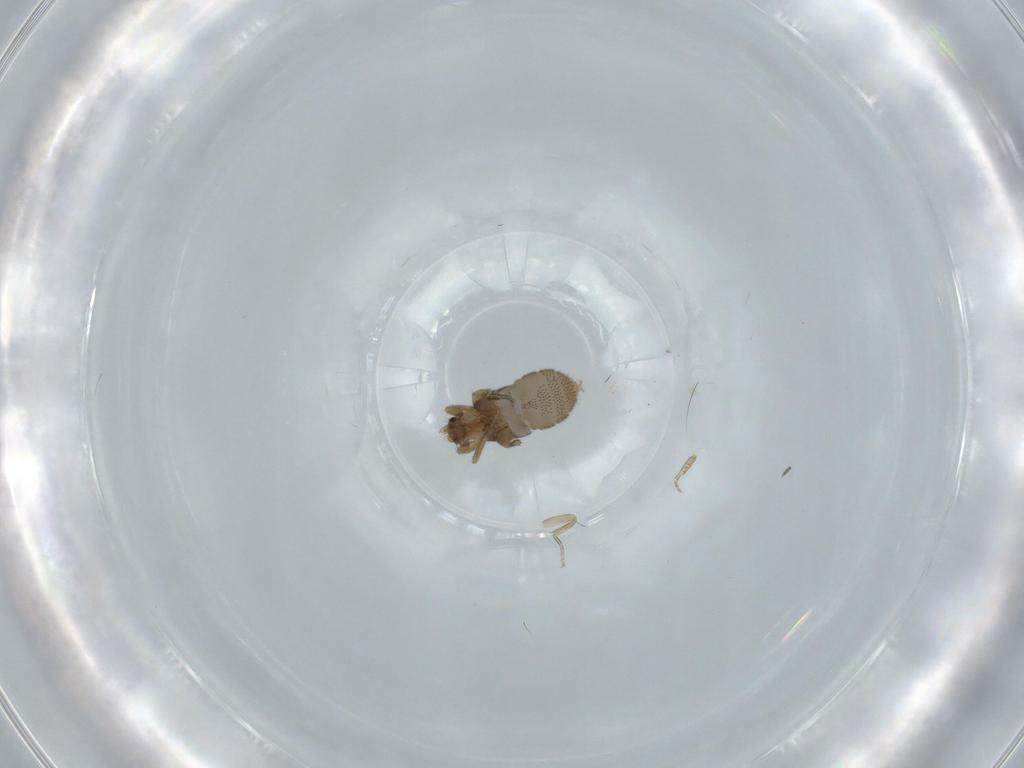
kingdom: Animalia
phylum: Arthropoda
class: Insecta
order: Diptera
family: Phoridae
